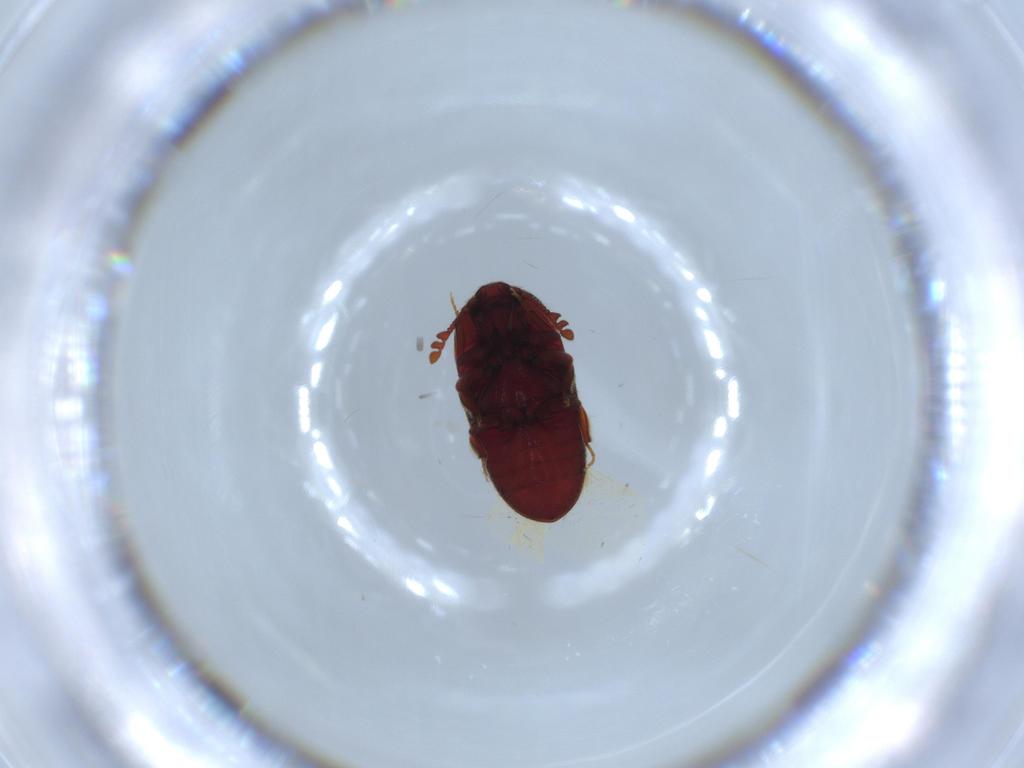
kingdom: Animalia
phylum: Arthropoda
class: Insecta
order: Coleoptera
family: Throscidae
